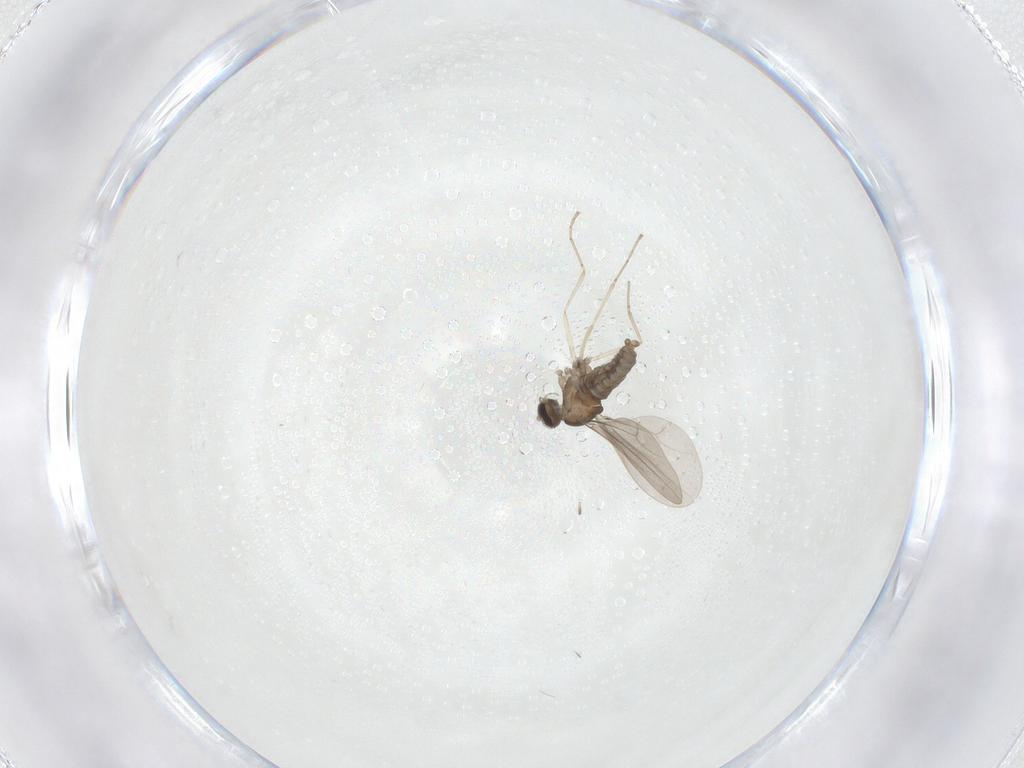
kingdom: Animalia
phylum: Arthropoda
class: Insecta
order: Diptera
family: Cecidomyiidae
